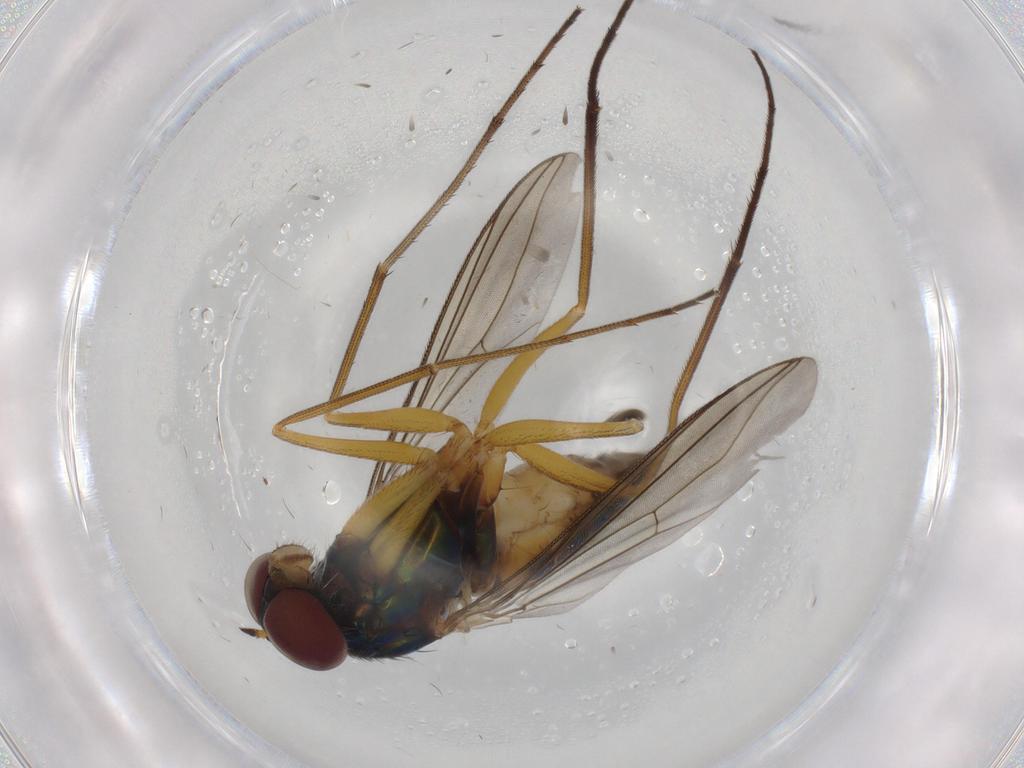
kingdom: Animalia
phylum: Arthropoda
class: Insecta
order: Diptera
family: Dolichopodidae
